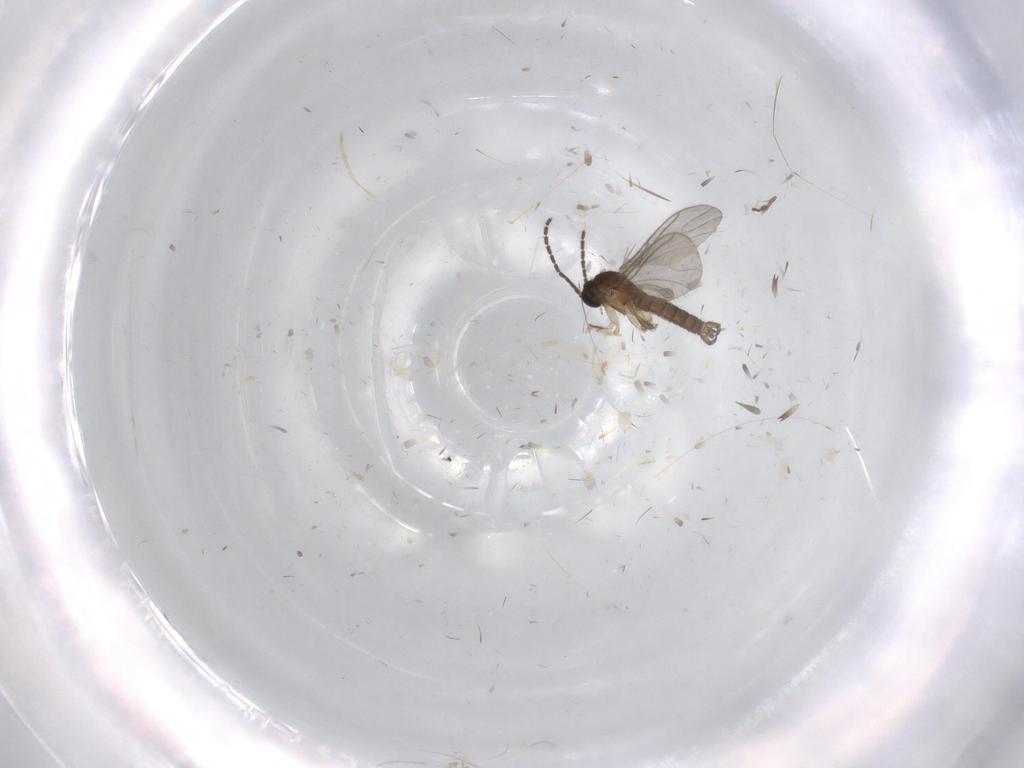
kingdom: Animalia
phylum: Arthropoda
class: Insecta
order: Diptera
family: Sciaridae
